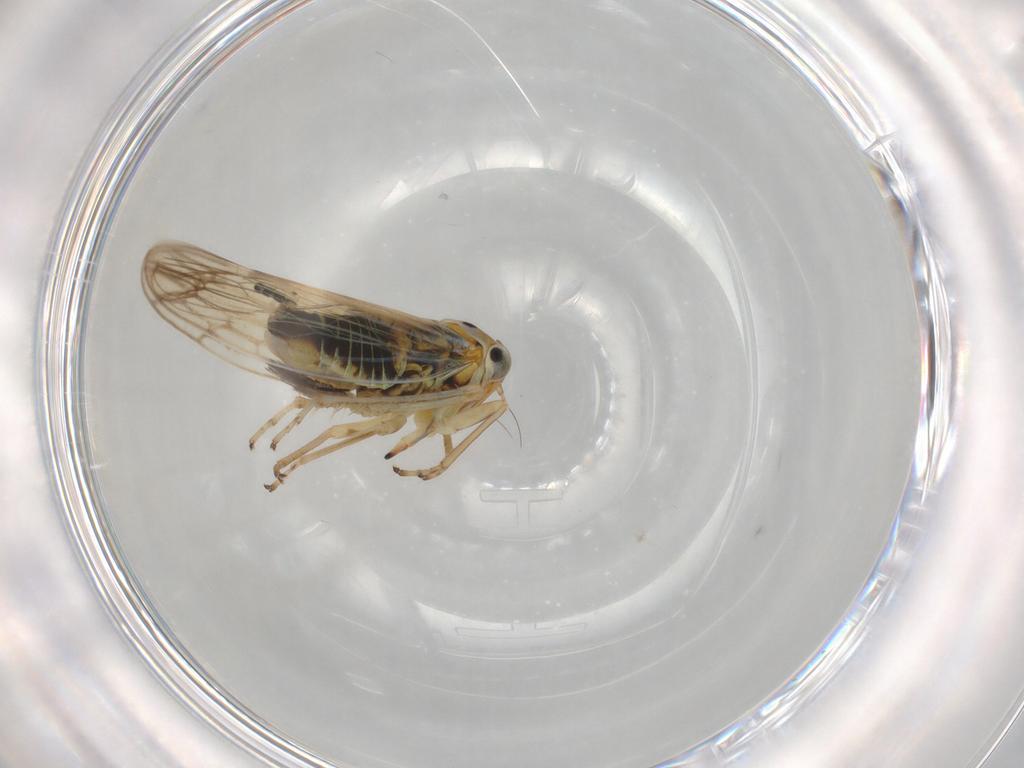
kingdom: Animalia
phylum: Arthropoda
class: Insecta
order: Hemiptera
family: Cicadellidae
